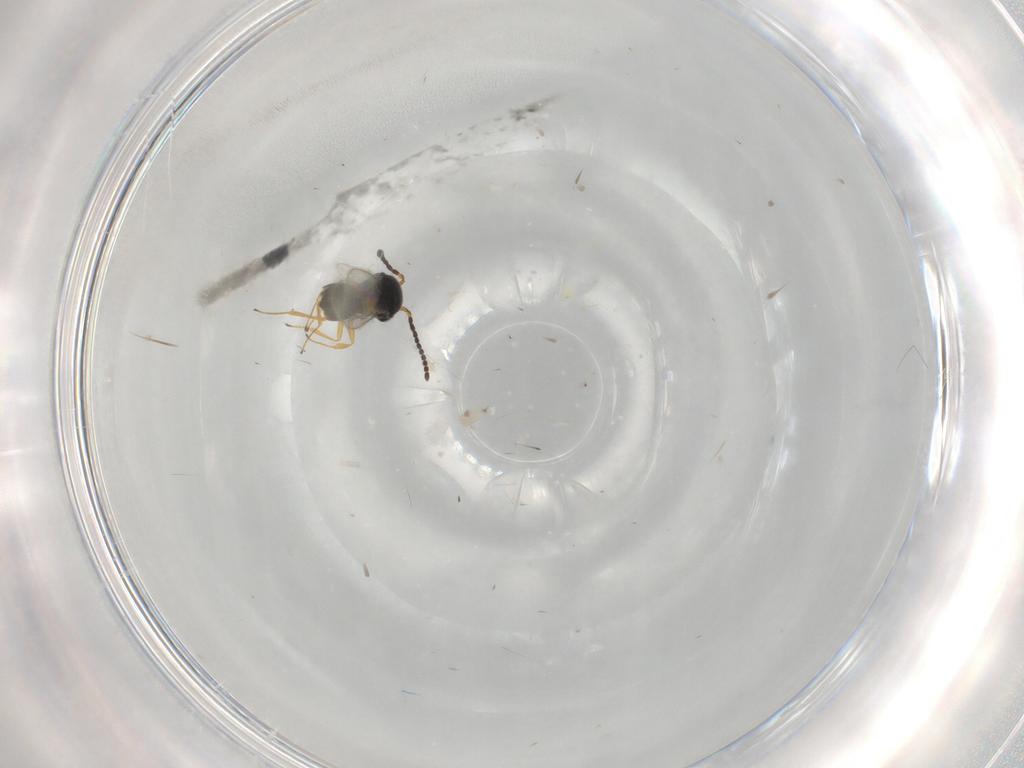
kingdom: Animalia
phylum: Arthropoda
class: Insecta
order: Hymenoptera
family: Scelionidae
